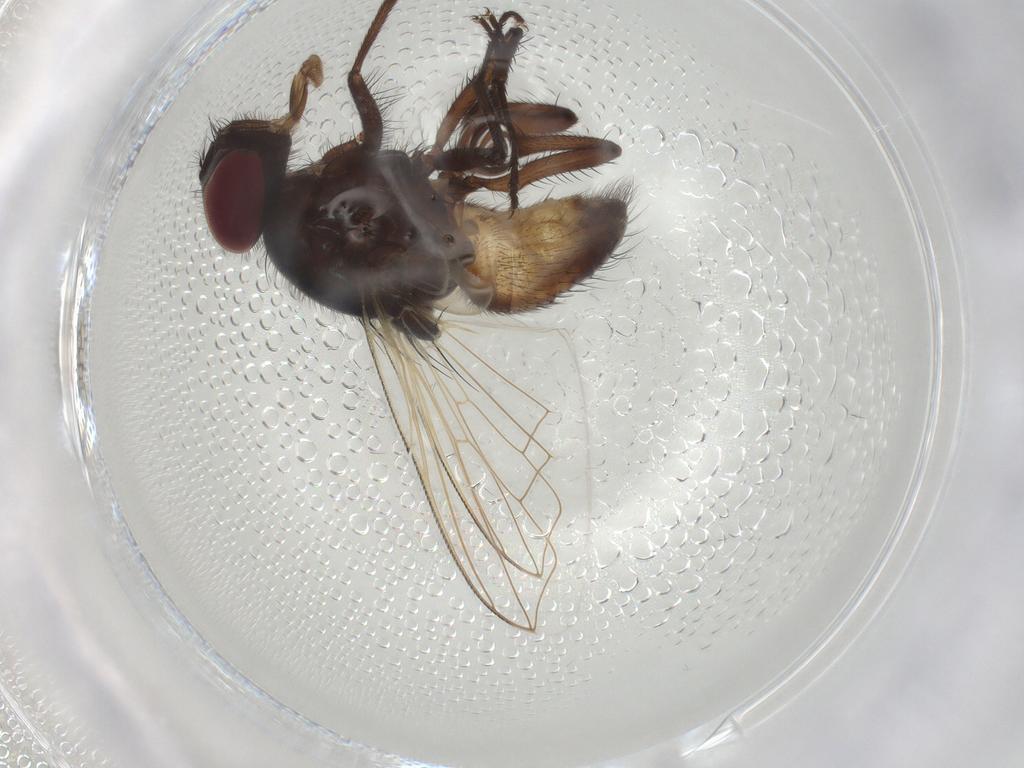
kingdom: Animalia
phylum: Arthropoda
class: Insecta
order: Diptera
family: Dolichopodidae
